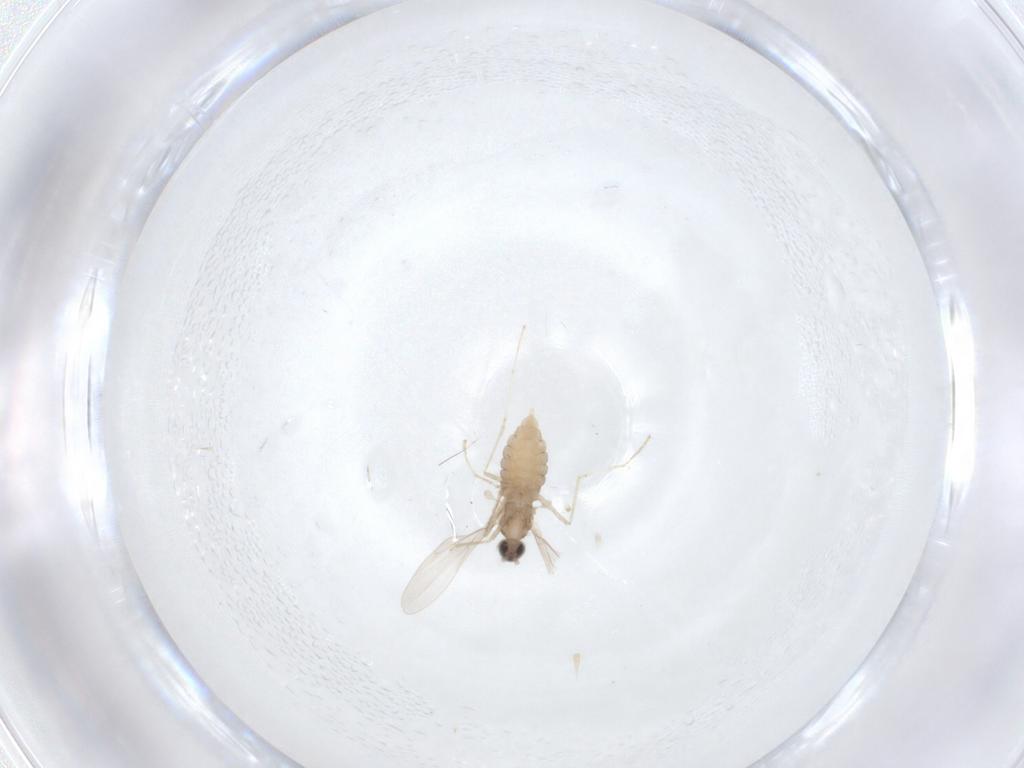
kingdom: Animalia
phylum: Arthropoda
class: Insecta
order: Diptera
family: Cecidomyiidae
